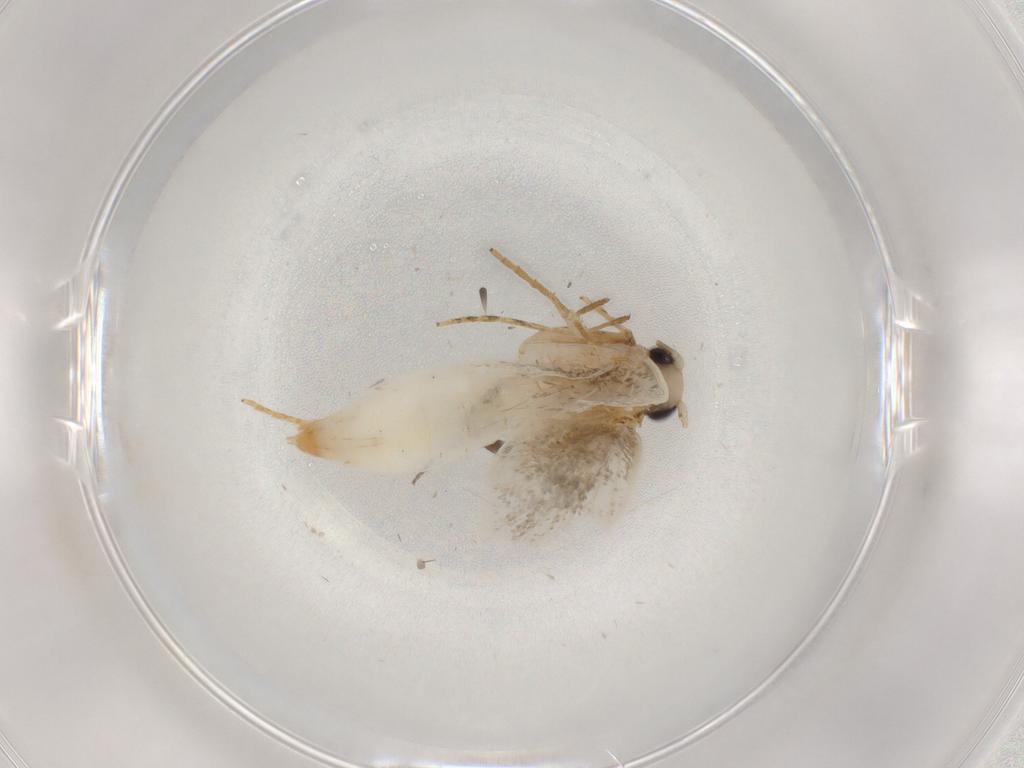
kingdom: Animalia
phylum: Arthropoda
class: Insecta
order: Lepidoptera
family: Tineidae
